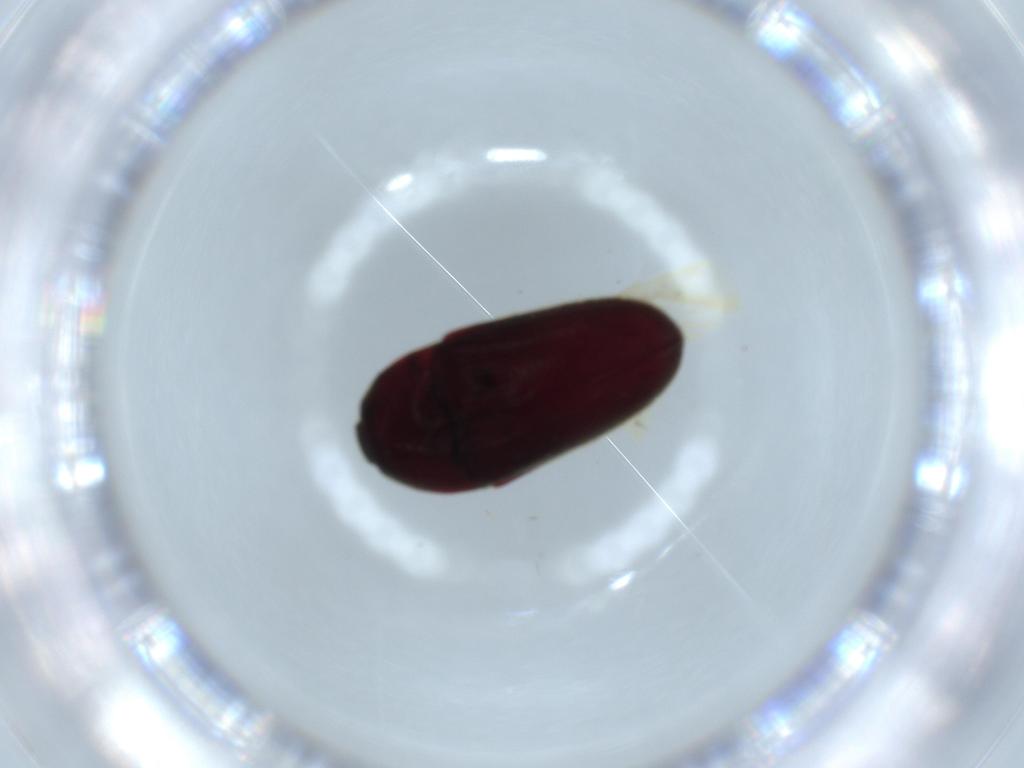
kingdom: Animalia
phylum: Arthropoda
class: Insecta
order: Coleoptera
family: Throscidae
